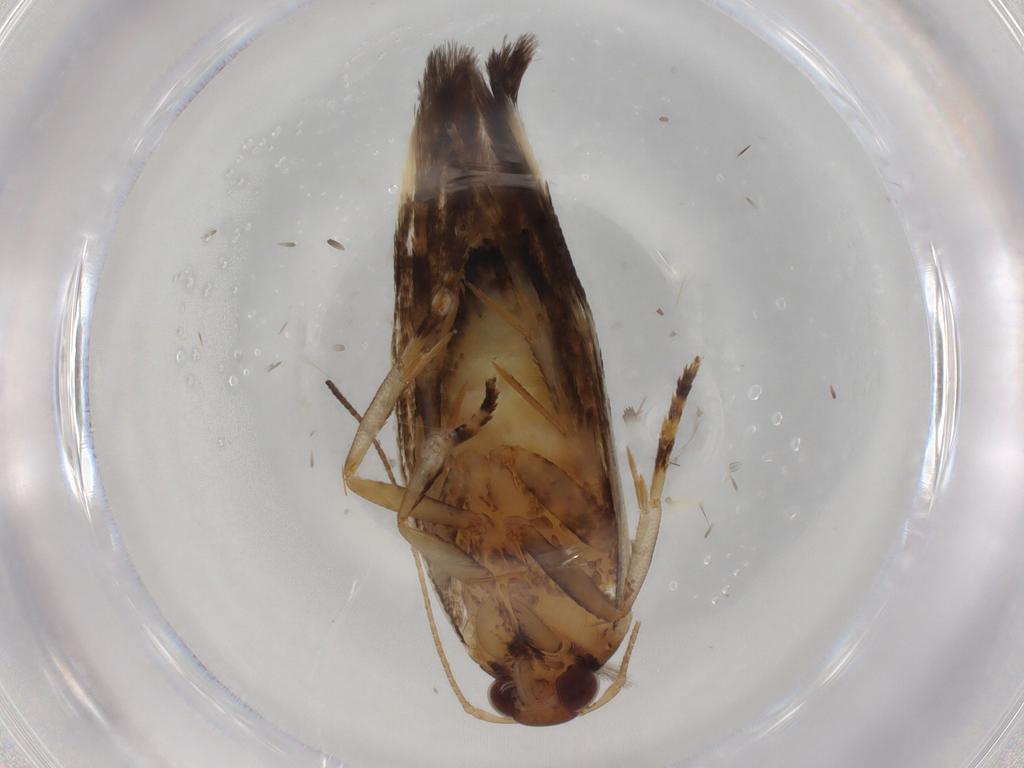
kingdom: Animalia
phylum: Arthropoda
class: Insecta
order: Lepidoptera
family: Cosmopterigidae
